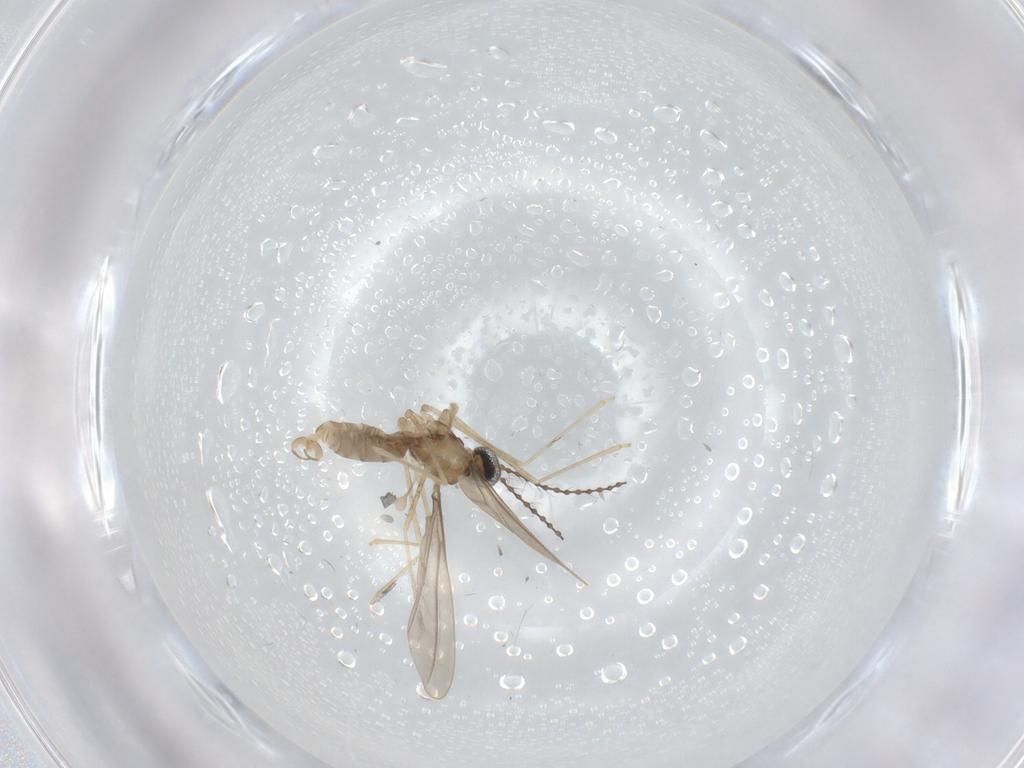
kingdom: Animalia
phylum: Arthropoda
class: Insecta
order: Diptera
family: Cecidomyiidae
